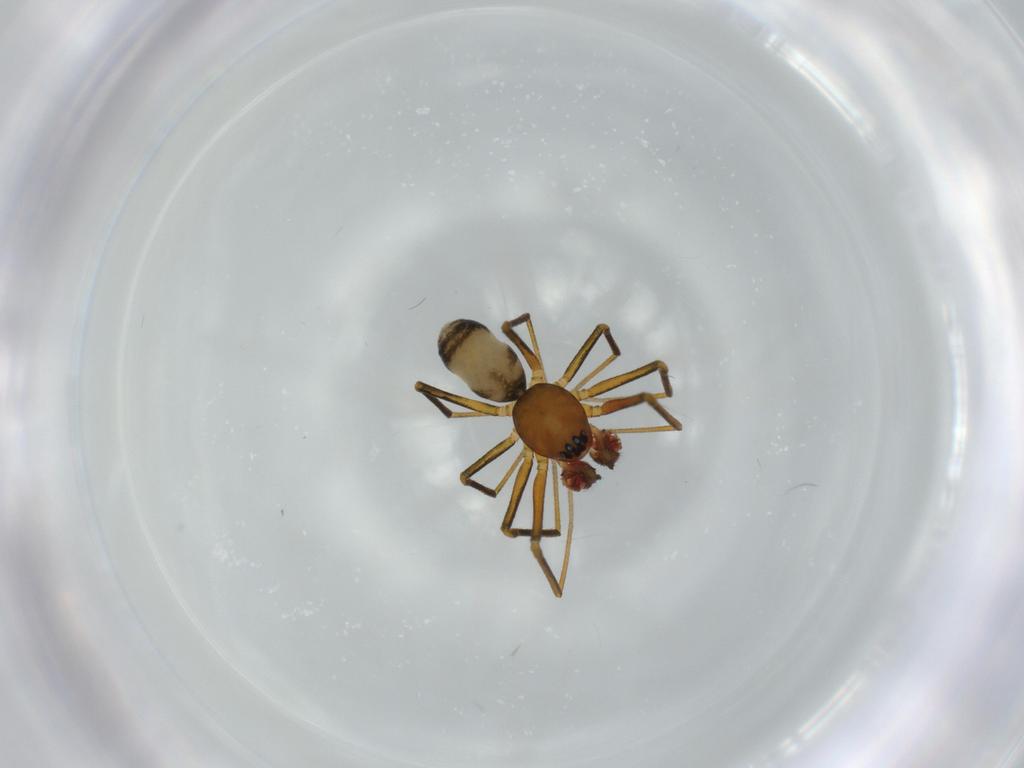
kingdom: Animalia
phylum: Arthropoda
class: Arachnida
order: Araneae
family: Linyphiidae
